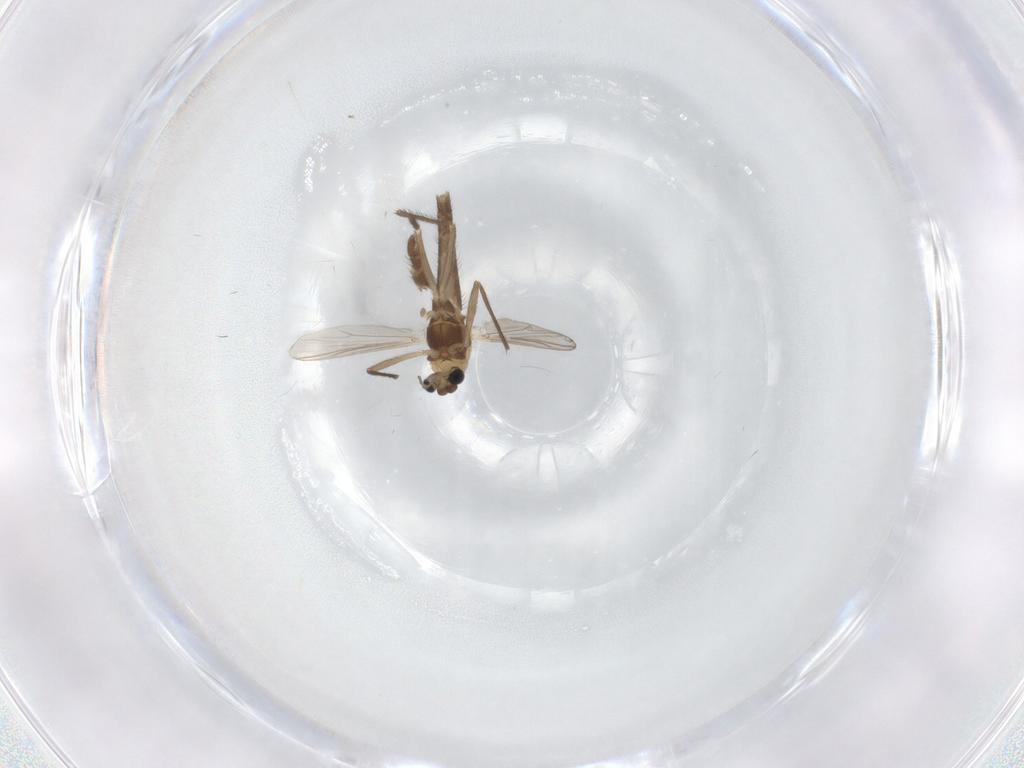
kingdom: Animalia
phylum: Arthropoda
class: Insecta
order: Diptera
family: Chironomidae
